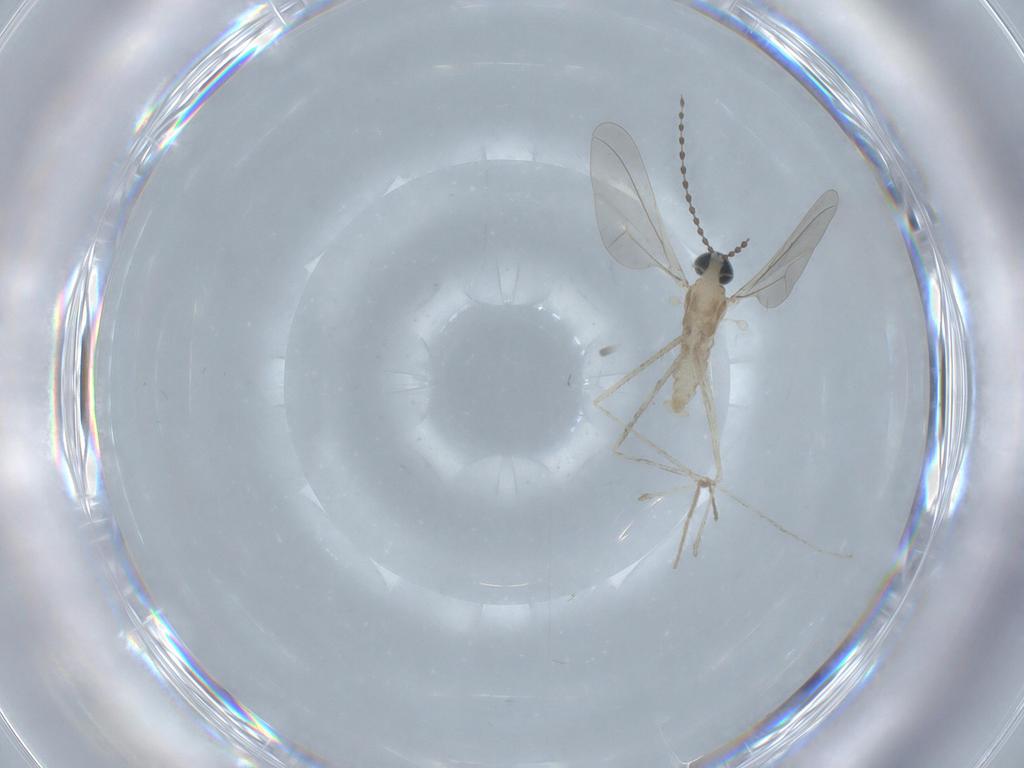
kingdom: Animalia
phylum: Arthropoda
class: Insecta
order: Diptera
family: Cecidomyiidae
